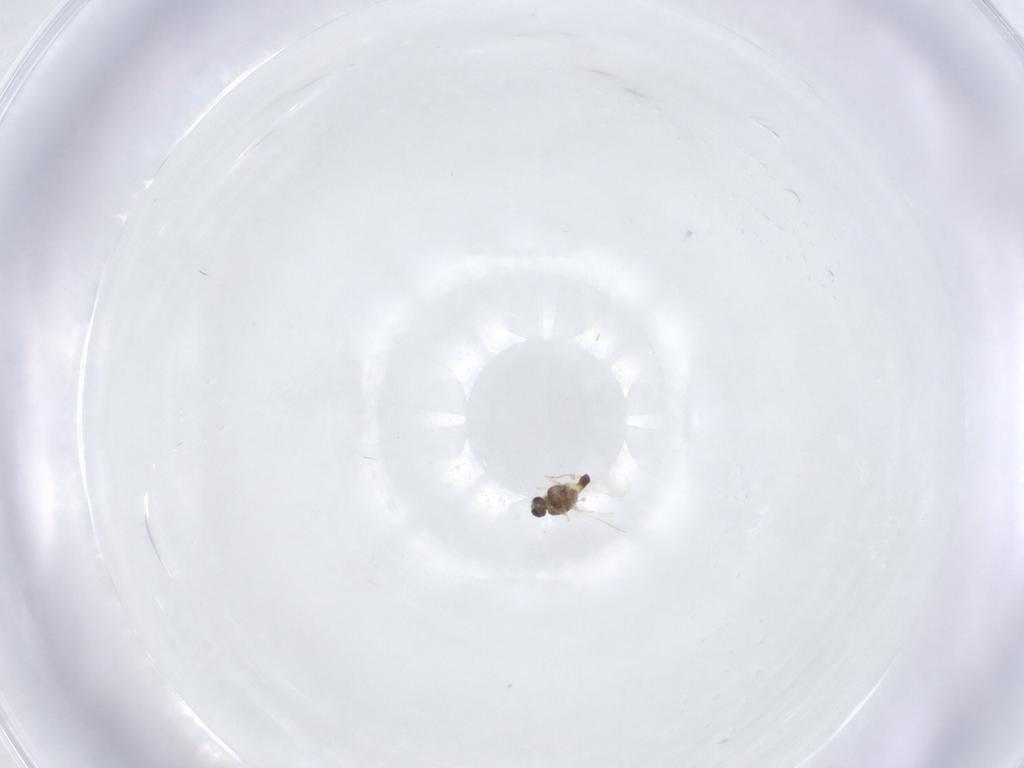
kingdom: Animalia
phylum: Arthropoda
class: Insecta
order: Diptera
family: Chironomidae
